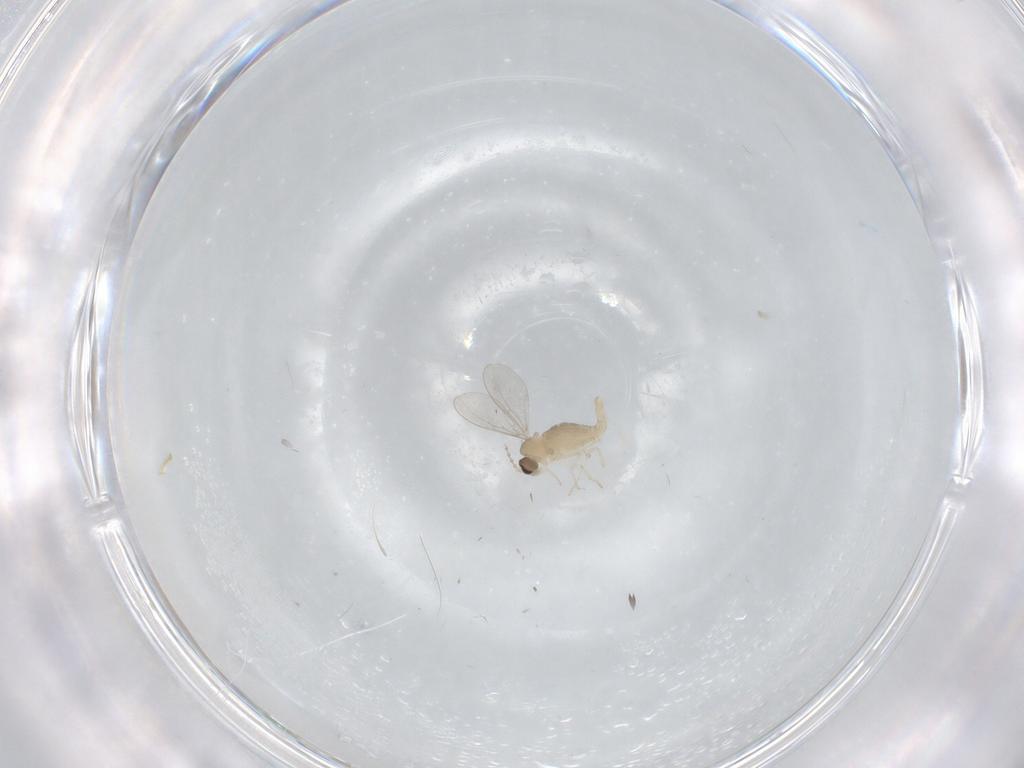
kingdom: Animalia
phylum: Arthropoda
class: Insecta
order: Diptera
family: Cecidomyiidae
